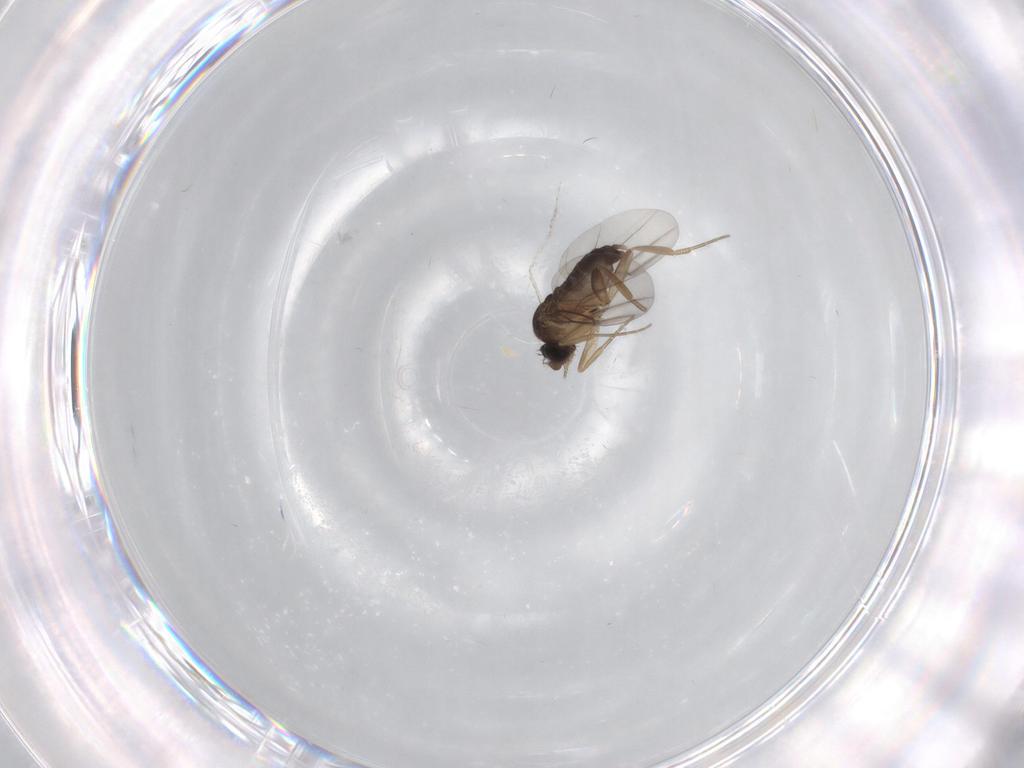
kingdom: Animalia
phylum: Arthropoda
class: Insecta
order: Diptera
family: Phoridae
